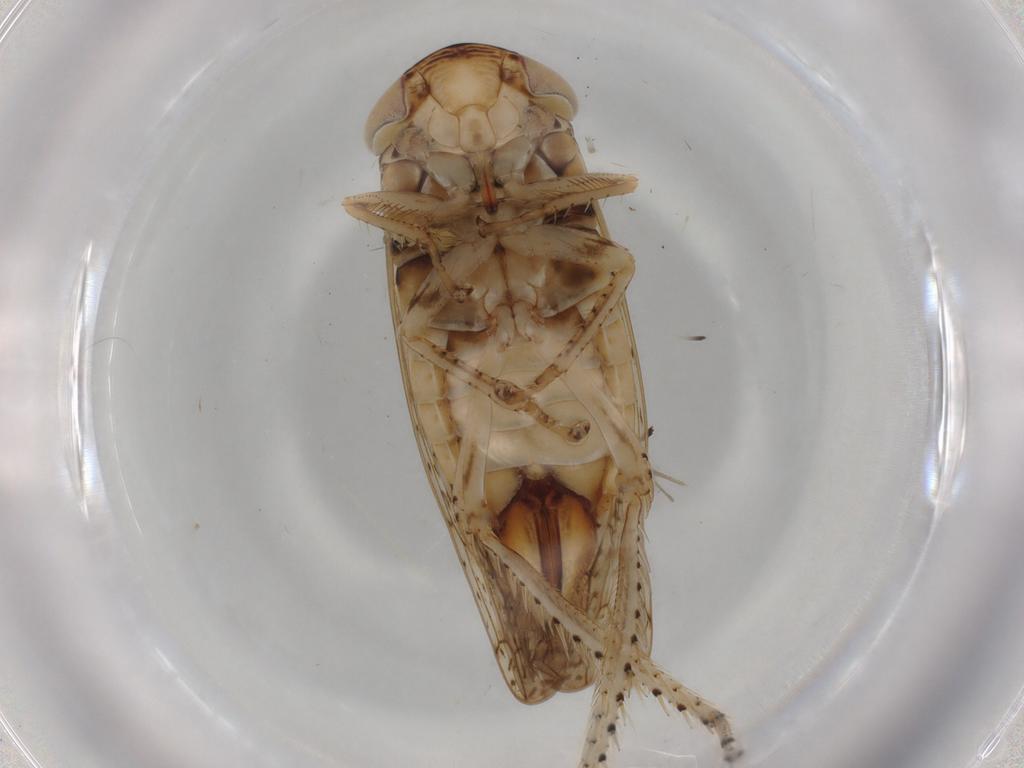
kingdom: Animalia
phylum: Arthropoda
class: Insecta
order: Hemiptera
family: Cicadellidae
